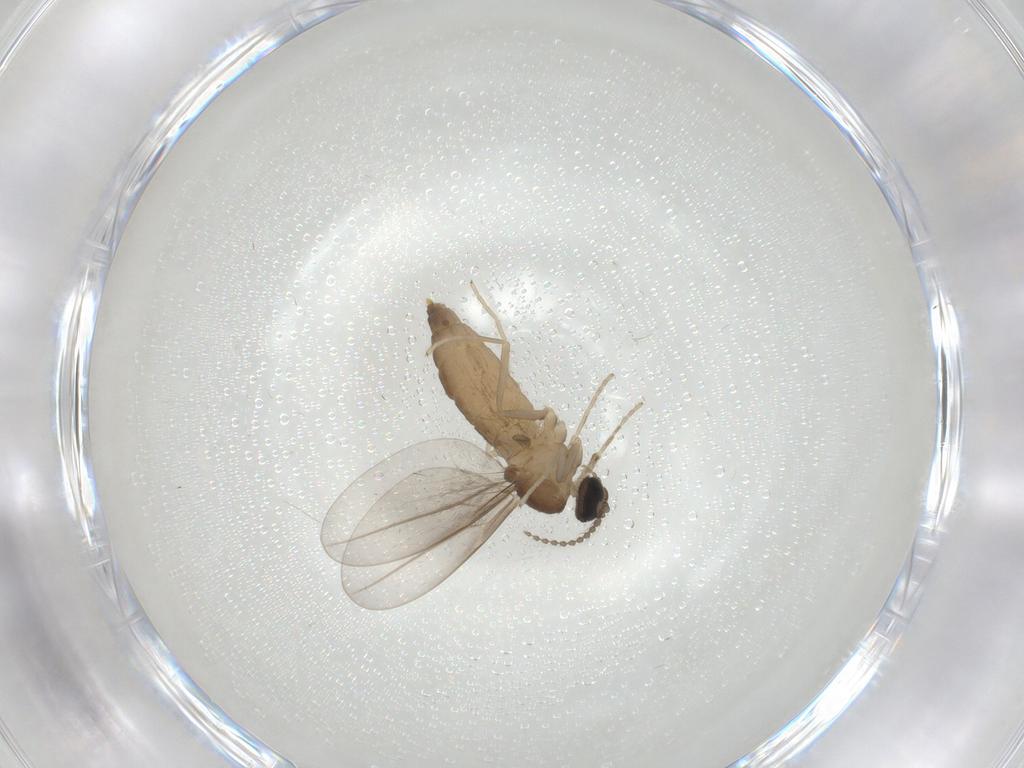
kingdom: Animalia
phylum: Arthropoda
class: Insecta
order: Diptera
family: Cecidomyiidae
